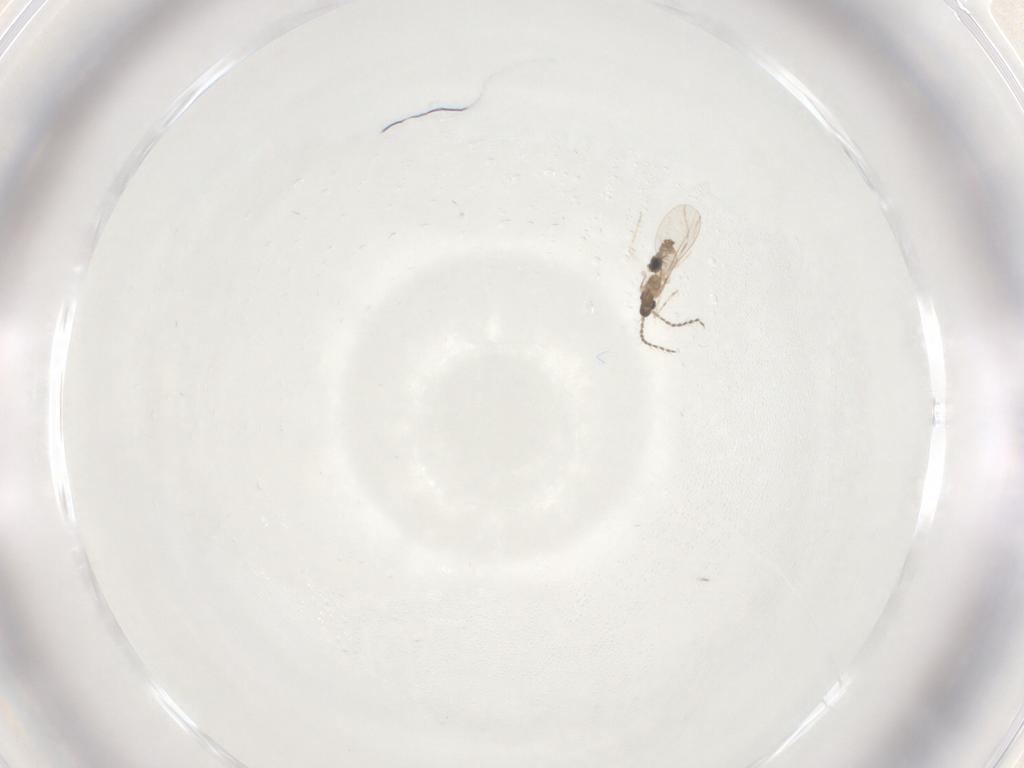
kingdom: Animalia
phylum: Arthropoda
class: Insecta
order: Diptera
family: Cecidomyiidae
